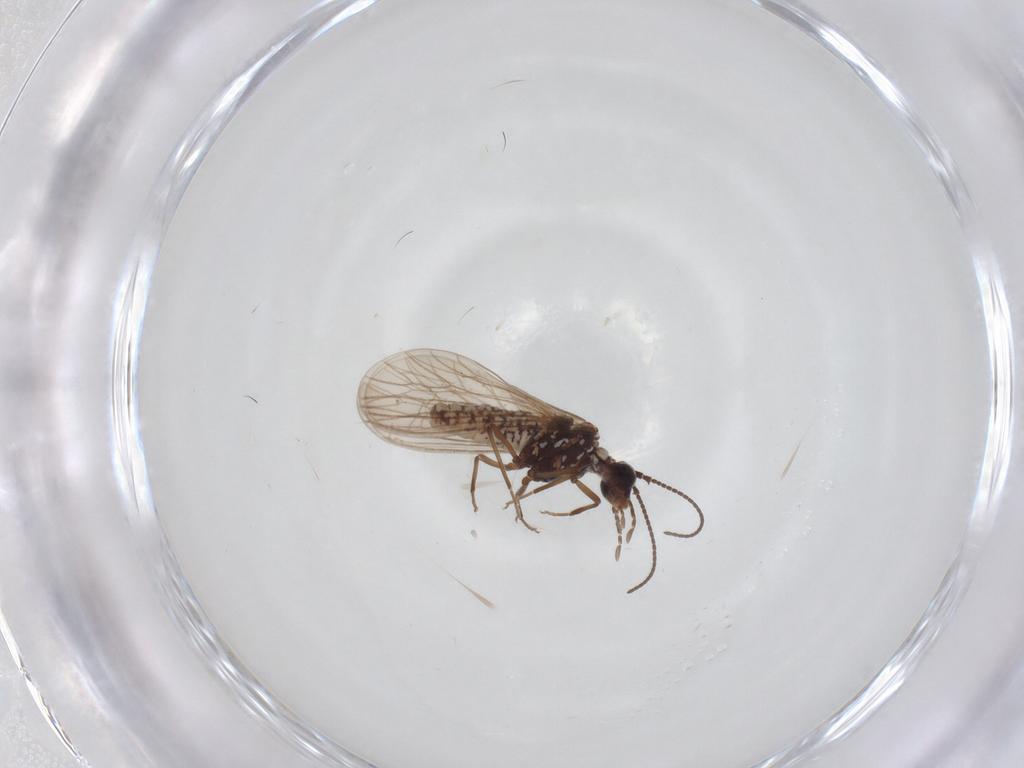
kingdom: Animalia
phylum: Arthropoda
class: Insecta
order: Neuroptera
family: Coniopterygidae
